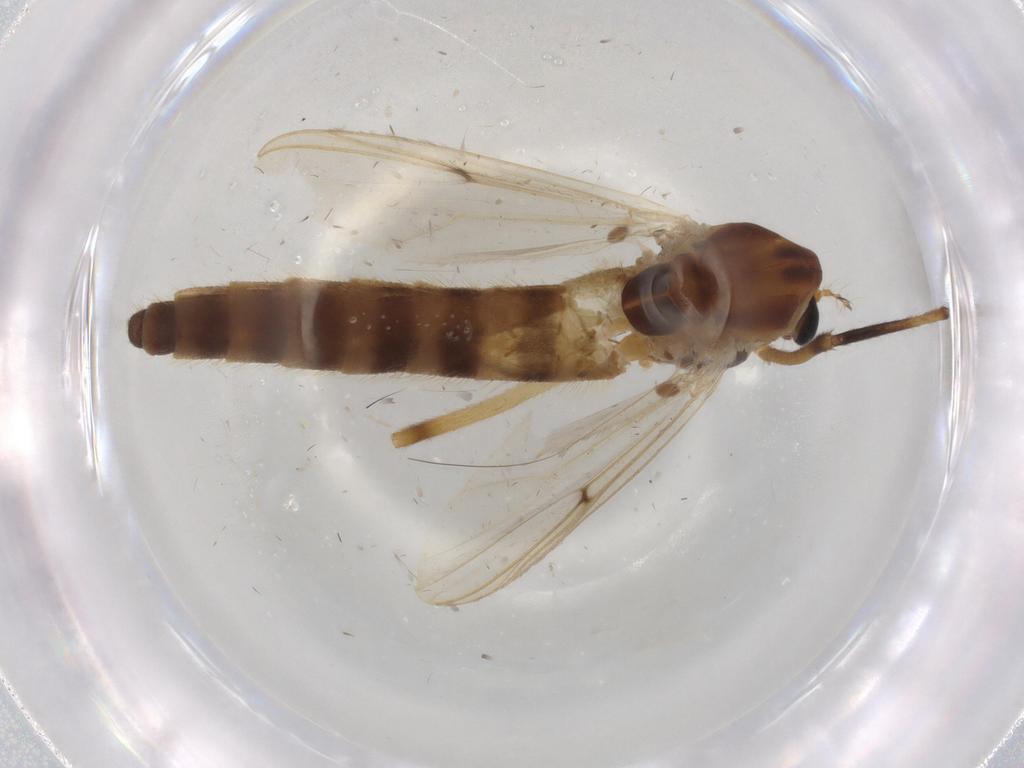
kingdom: Animalia
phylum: Arthropoda
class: Insecta
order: Diptera
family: Chironomidae
